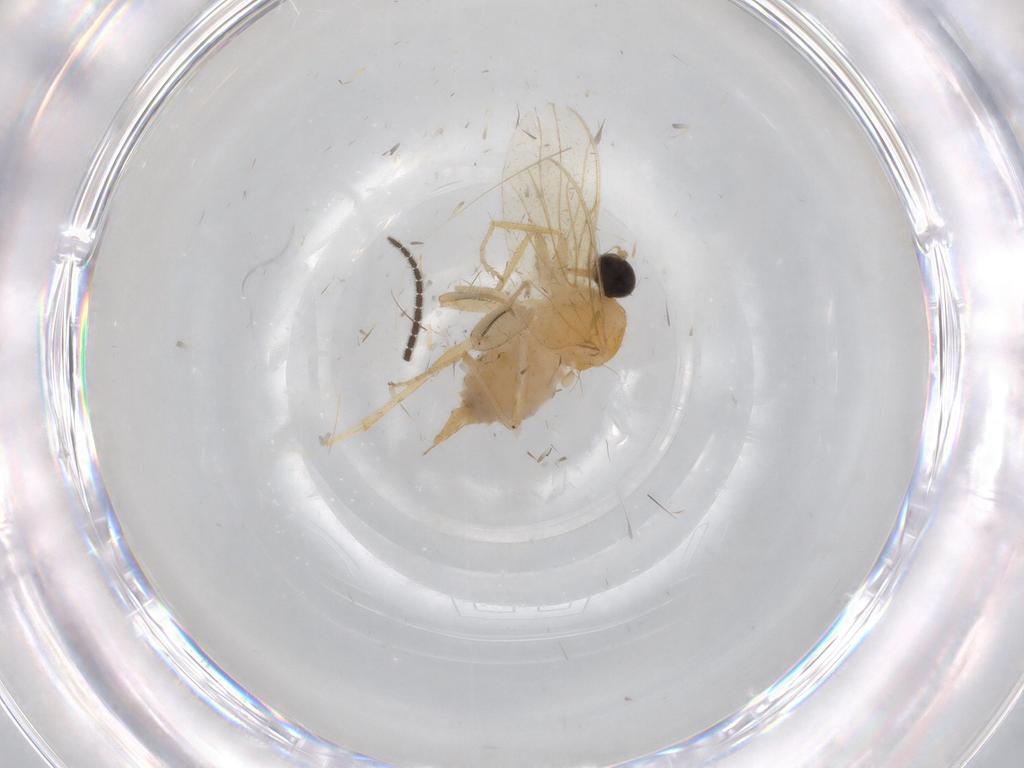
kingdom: Animalia
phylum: Arthropoda
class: Insecta
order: Diptera
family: Sciaridae
